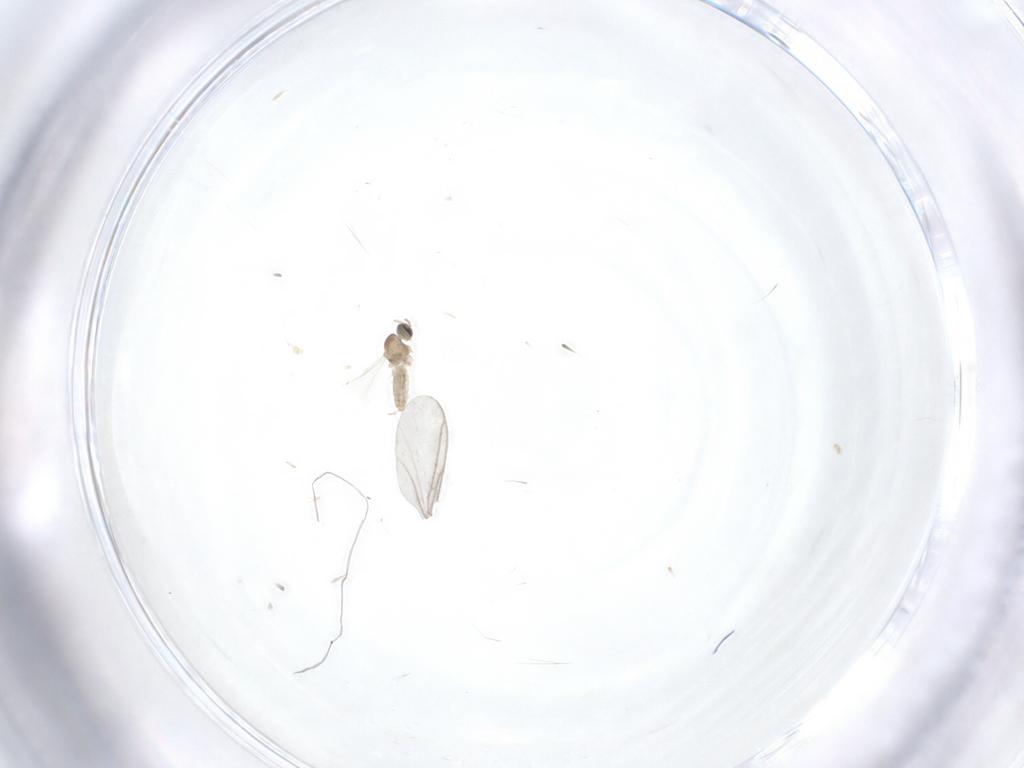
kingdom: Animalia
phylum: Arthropoda
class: Insecta
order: Diptera
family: Cecidomyiidae
